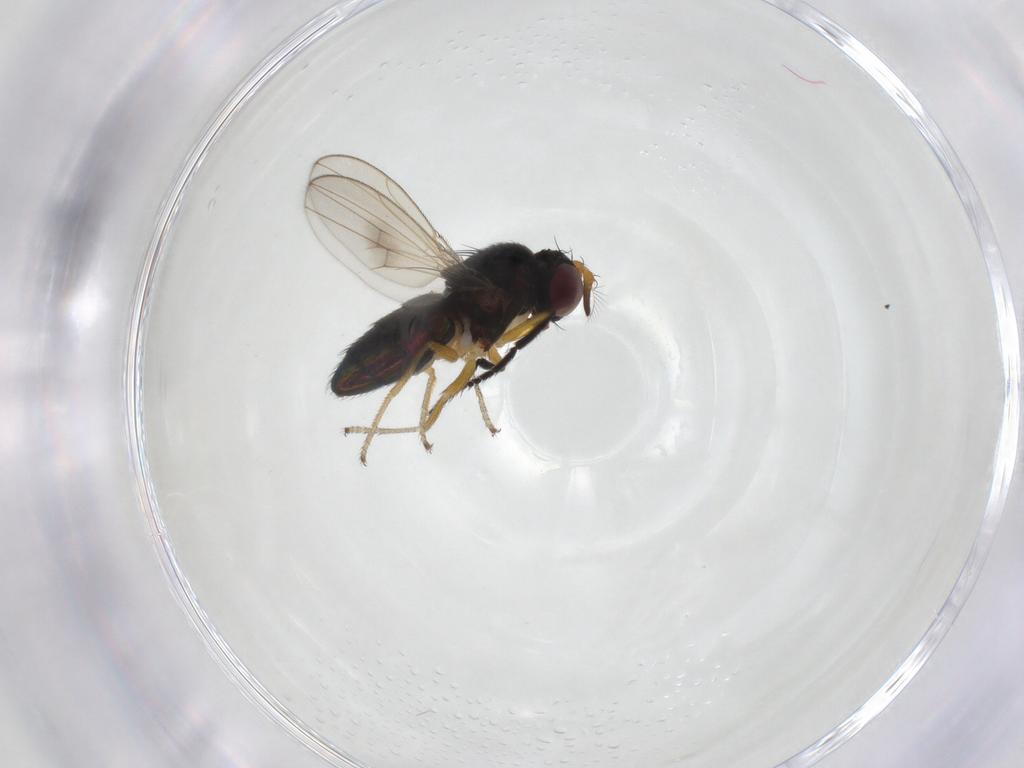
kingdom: Animalia
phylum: Arthropoda
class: Insecta
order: Diptera
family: Ephydridae
